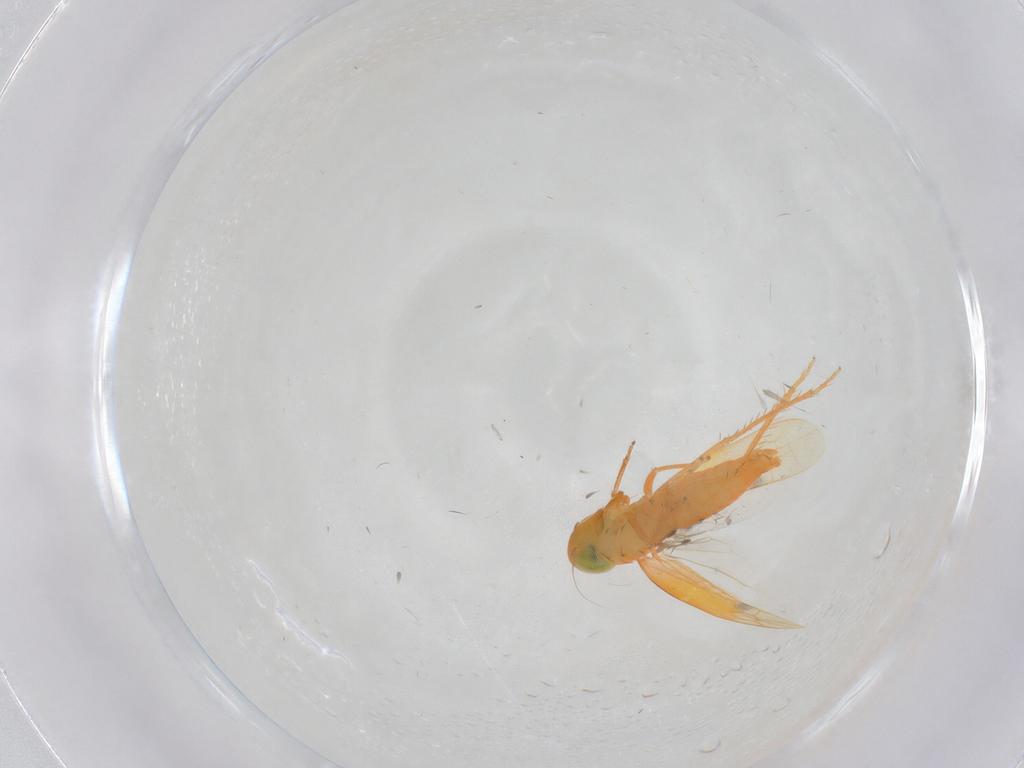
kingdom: Animalia
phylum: Arthropoda
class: Insecta
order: Hemiptera
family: Cicadellidae
